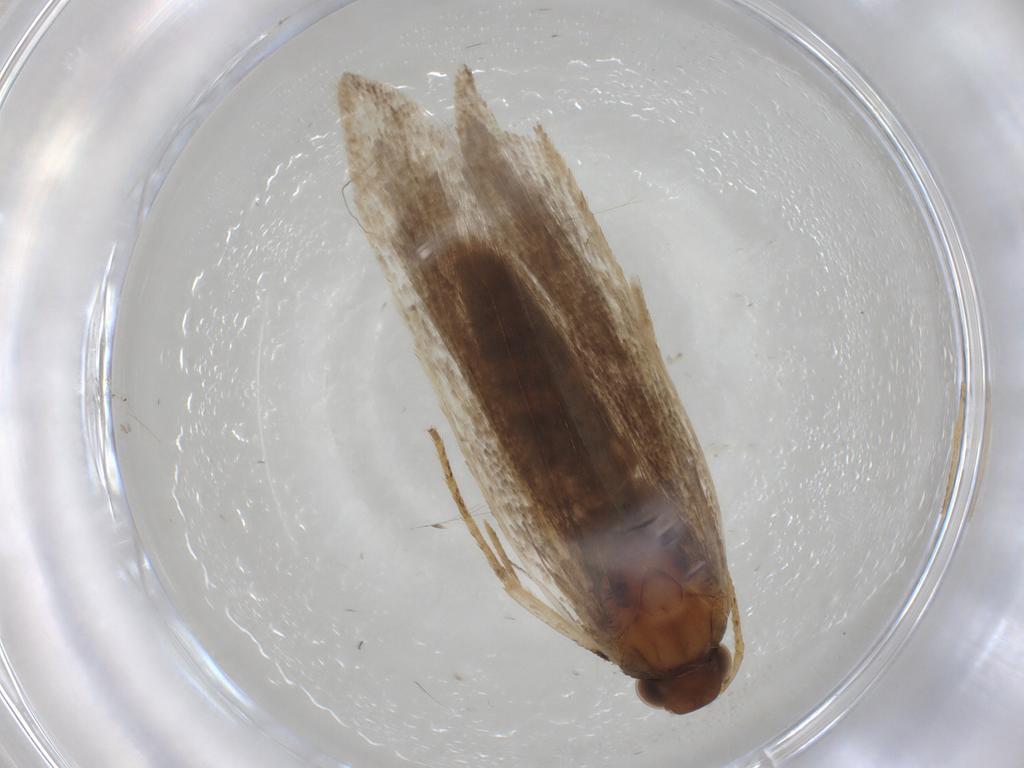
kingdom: Animalia
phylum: Arthropoda
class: Insecta
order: Lepidoptera
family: Gelechiidae
